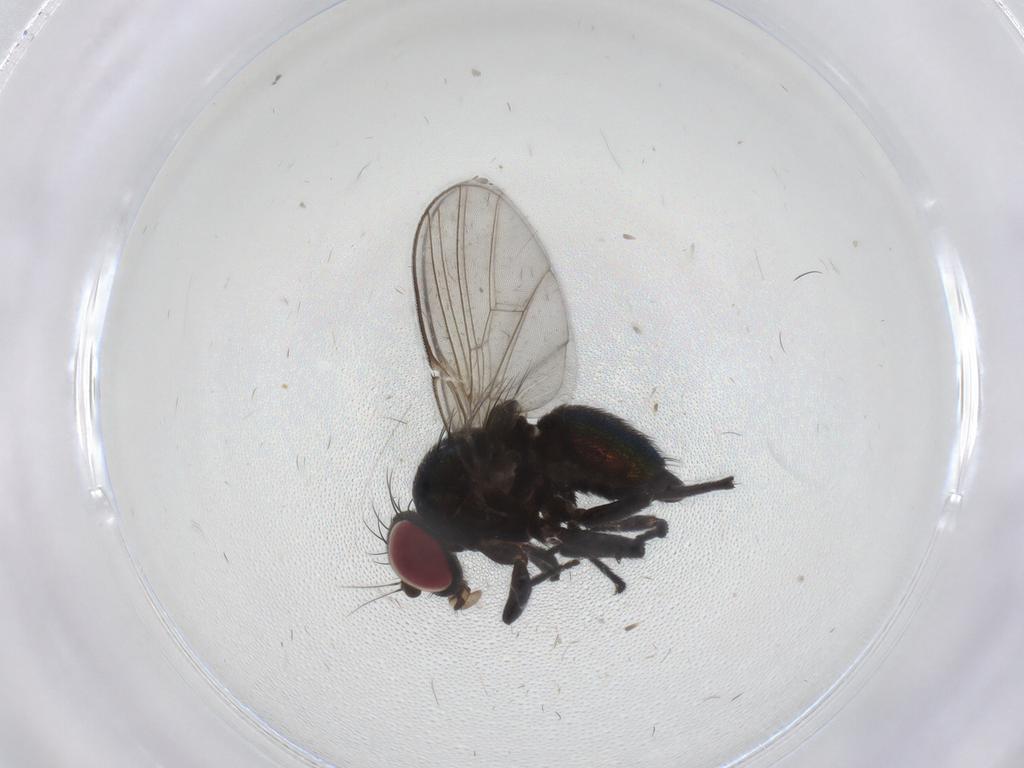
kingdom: Animalia
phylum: Arthropoda
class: Insecta
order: Diptera
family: Agromyzidae
